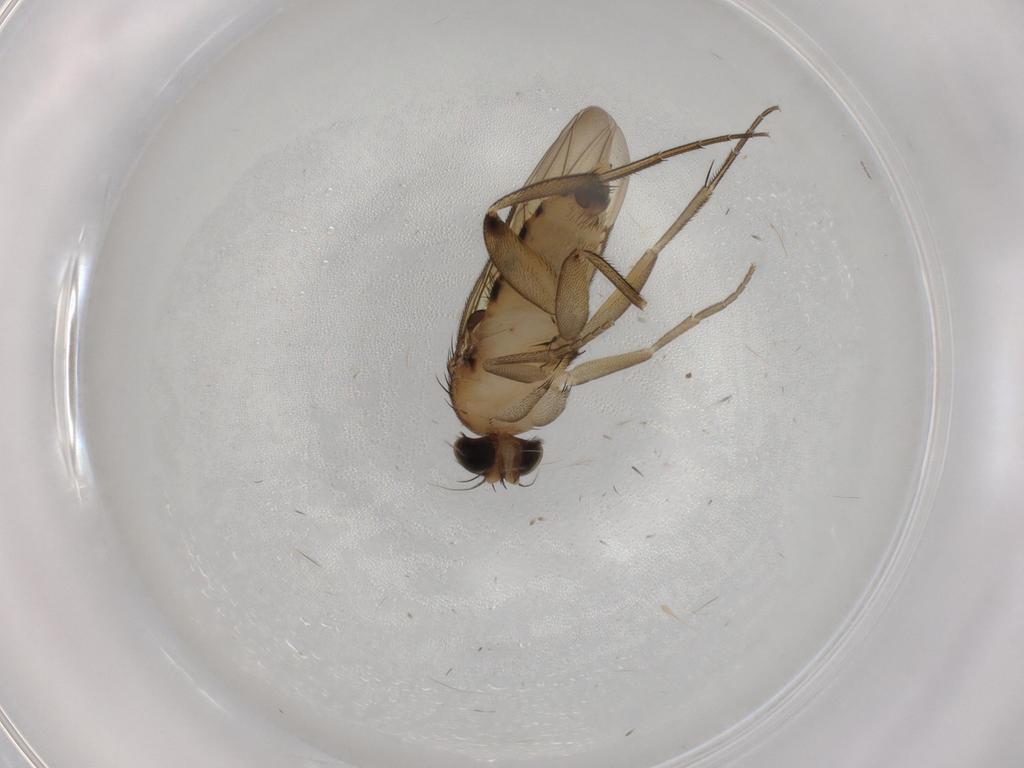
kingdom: Animalia
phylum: Arthropoda
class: Insecta
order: Diptera
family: Phoridae
